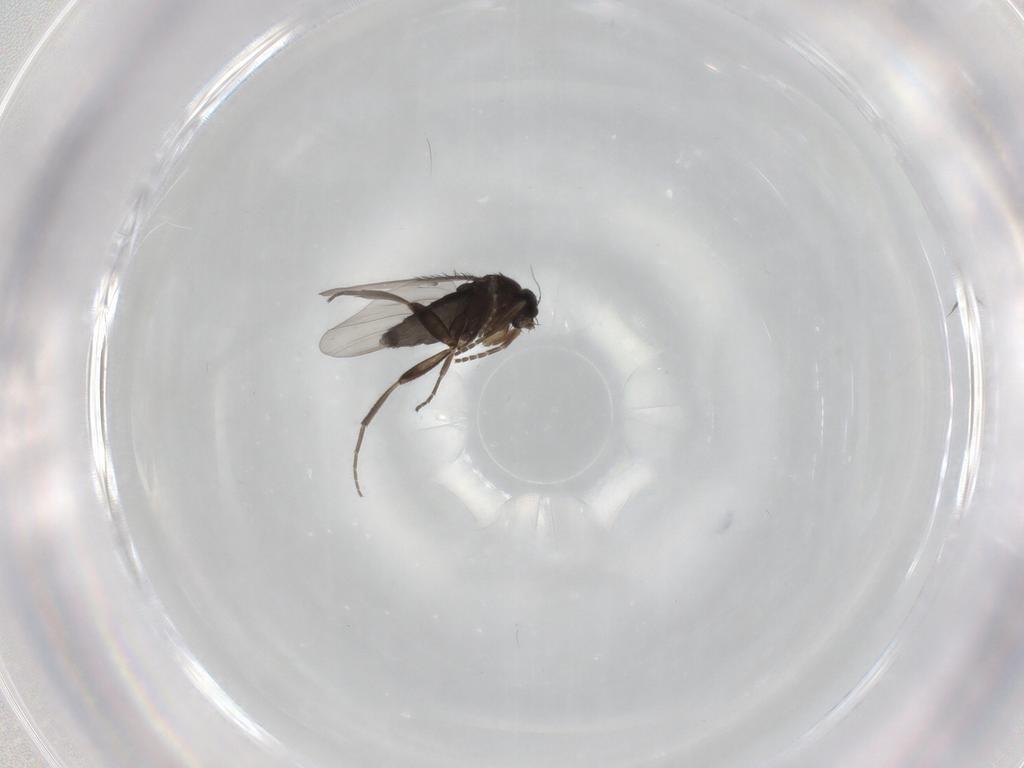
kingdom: Animalia
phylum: Arthropoda
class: Insecta
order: Diptera
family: Phoridae
